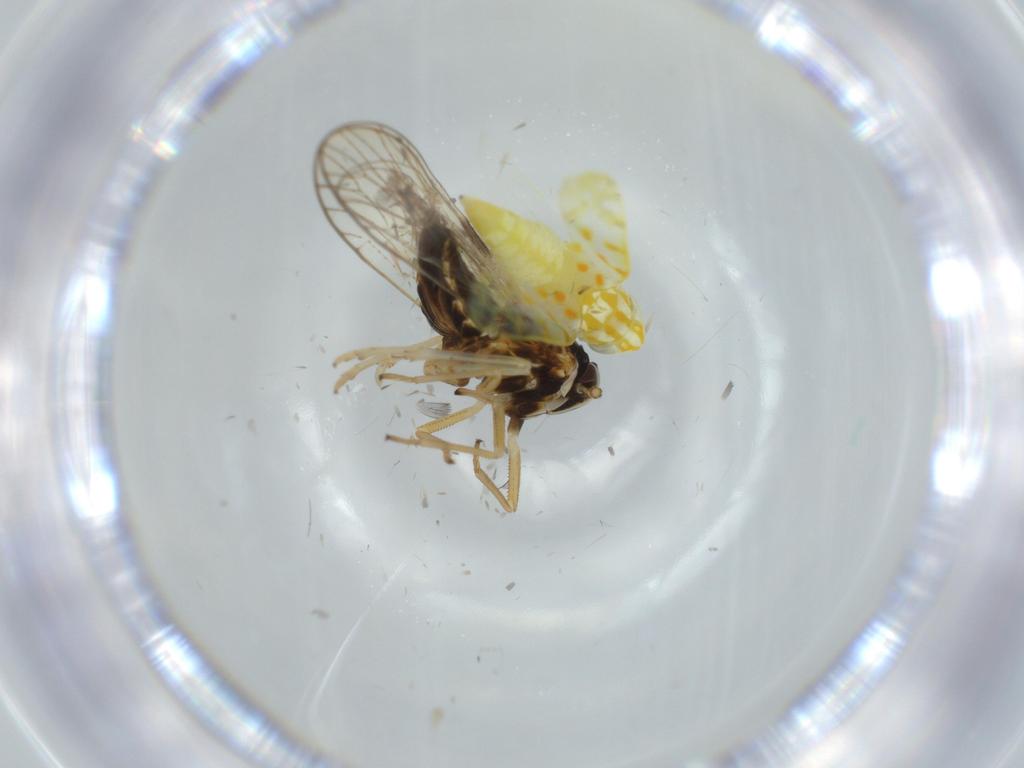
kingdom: Animalia
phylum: Arthropoda
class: Insecta
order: Hemiptera
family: Cicadellidae
